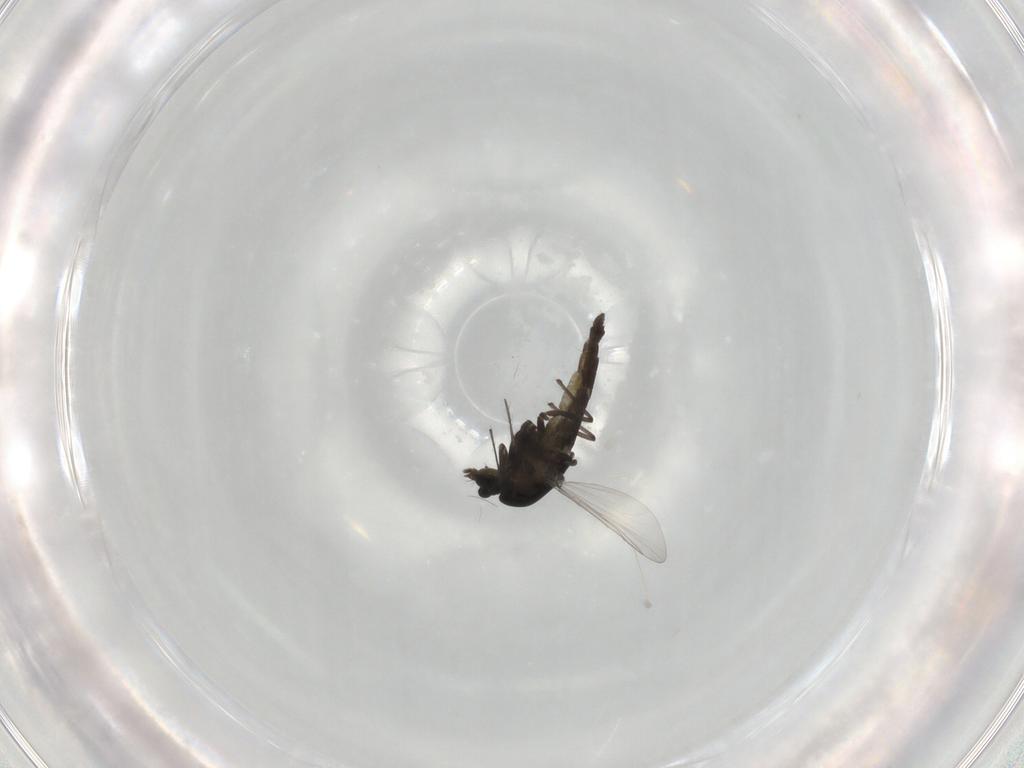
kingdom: Animalia
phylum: Arthropoda
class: Insecta
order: Diptera
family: Chironomidae
